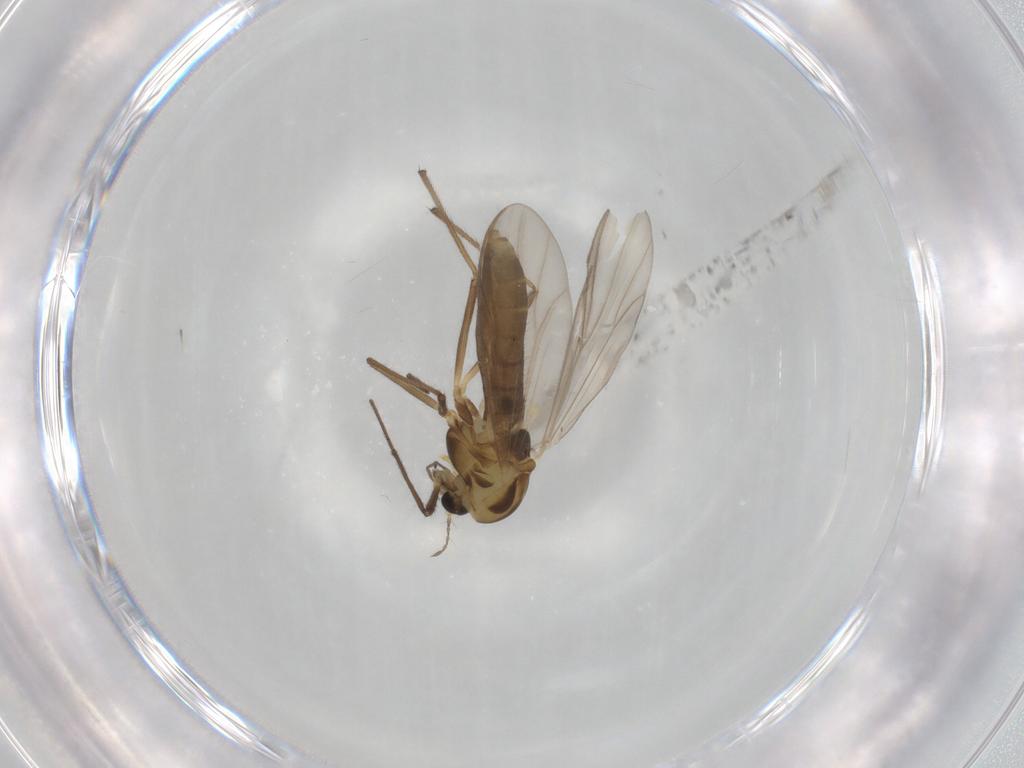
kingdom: Animalia
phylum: Arthropoda
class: Insecta
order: Diptera
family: Chironomidae
